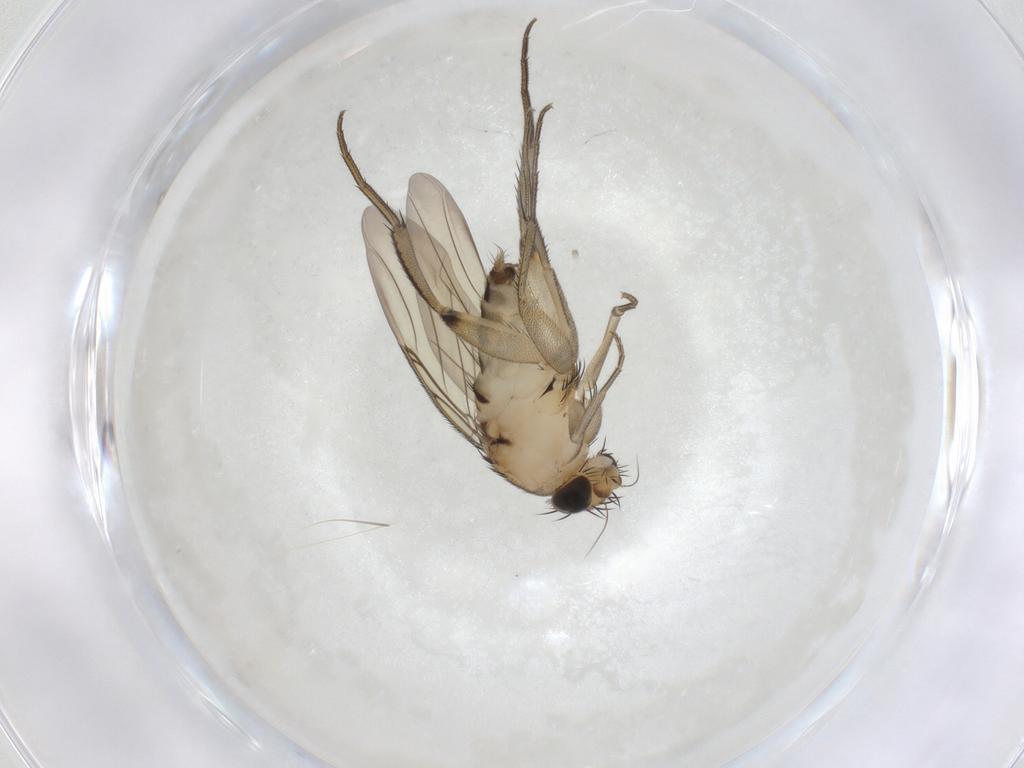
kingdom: Animalia
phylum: Arthropoda
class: Insecta
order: Diptera
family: Phoridae
